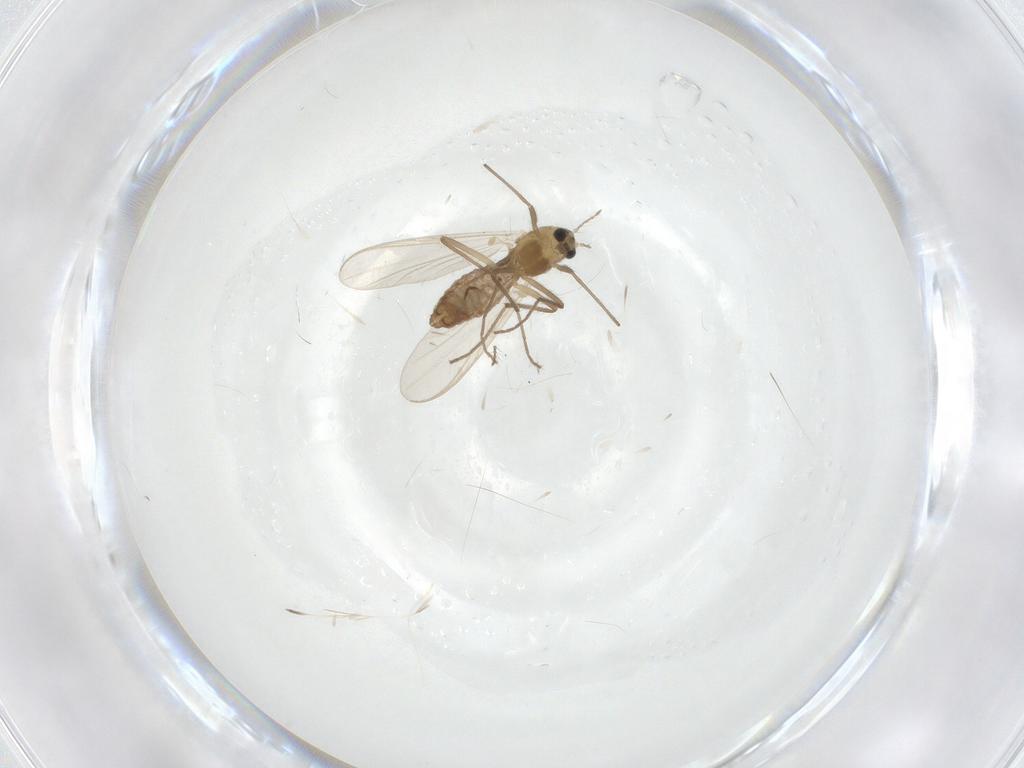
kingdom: Animalia
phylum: Arthropoda
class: Insecta
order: Diptera
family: Chironomidae
